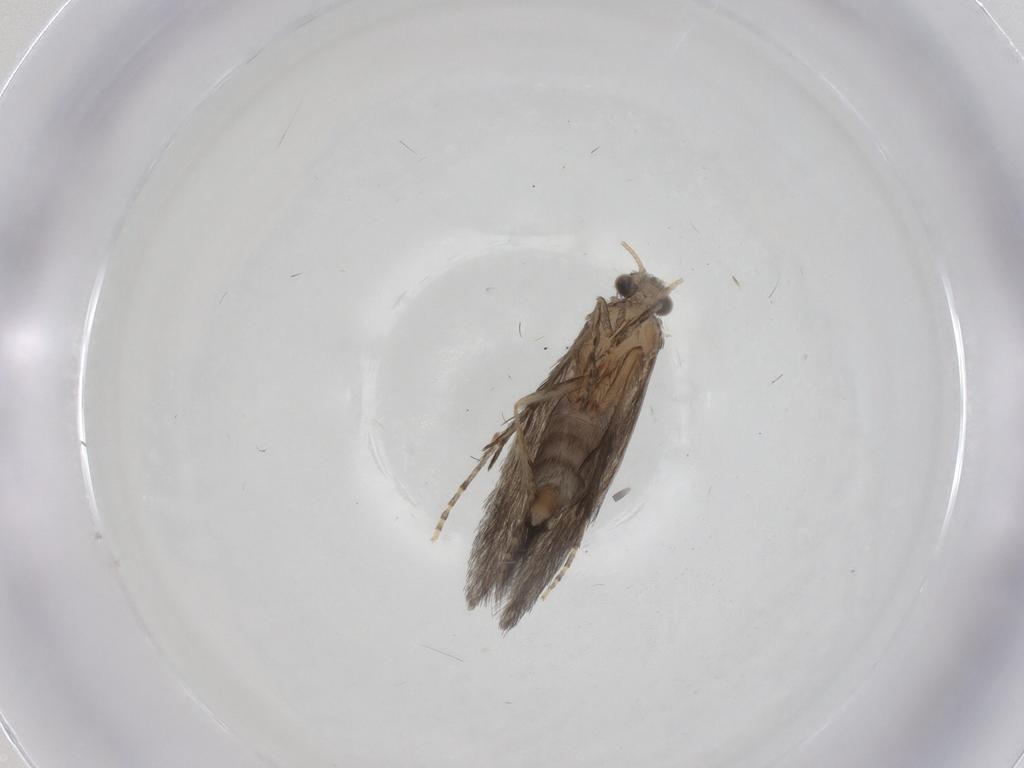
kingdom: Animalia
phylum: Arthropoda
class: Insecta
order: Trichoptera
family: Hydroptilidae
